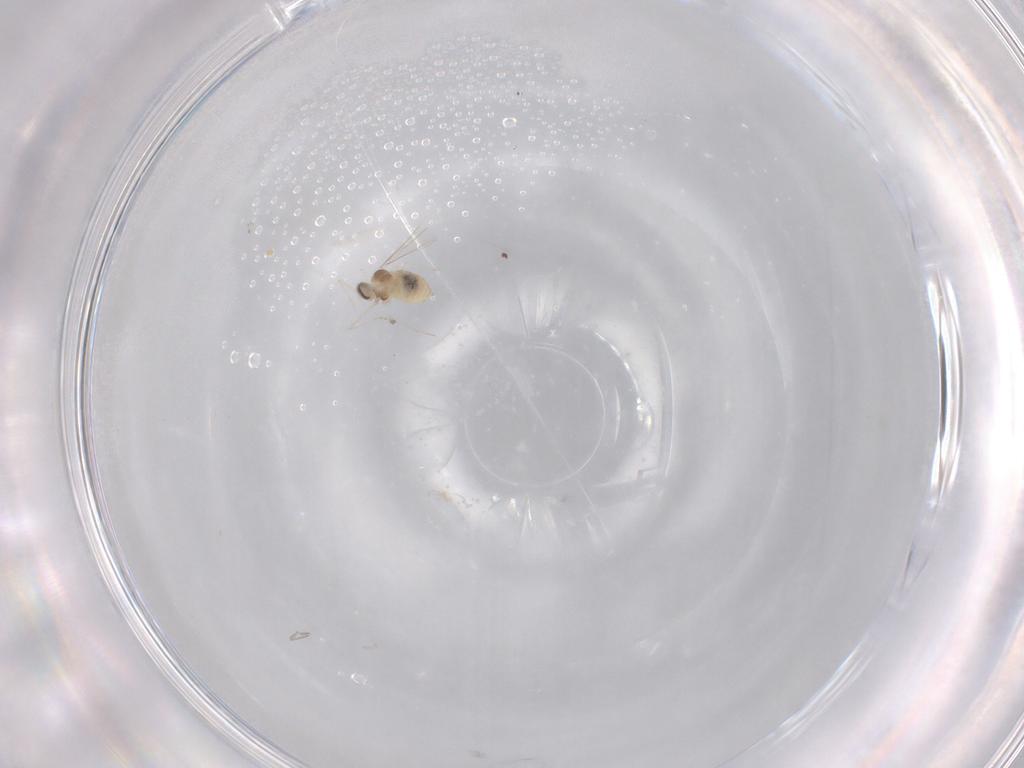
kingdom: Animalia
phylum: Arthropoda
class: Insecta
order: Diptera
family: Cecidomyiidae
